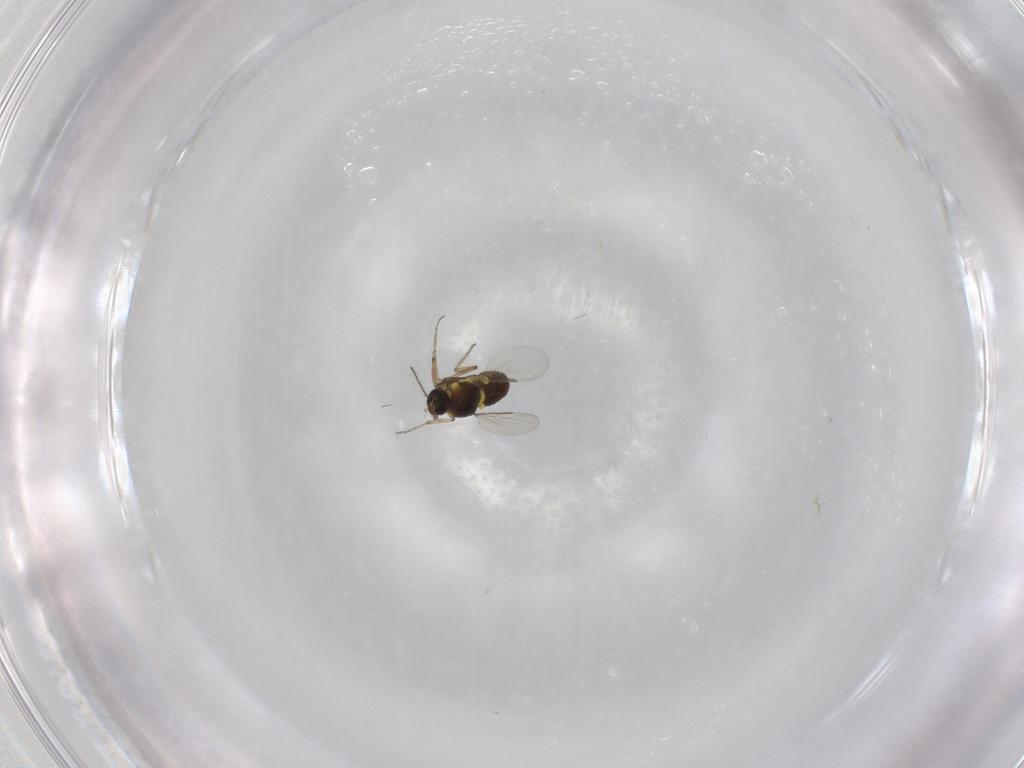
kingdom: Animalia
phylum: Arthropoda
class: Insecta
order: Diptera
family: Ceratopogonidae
